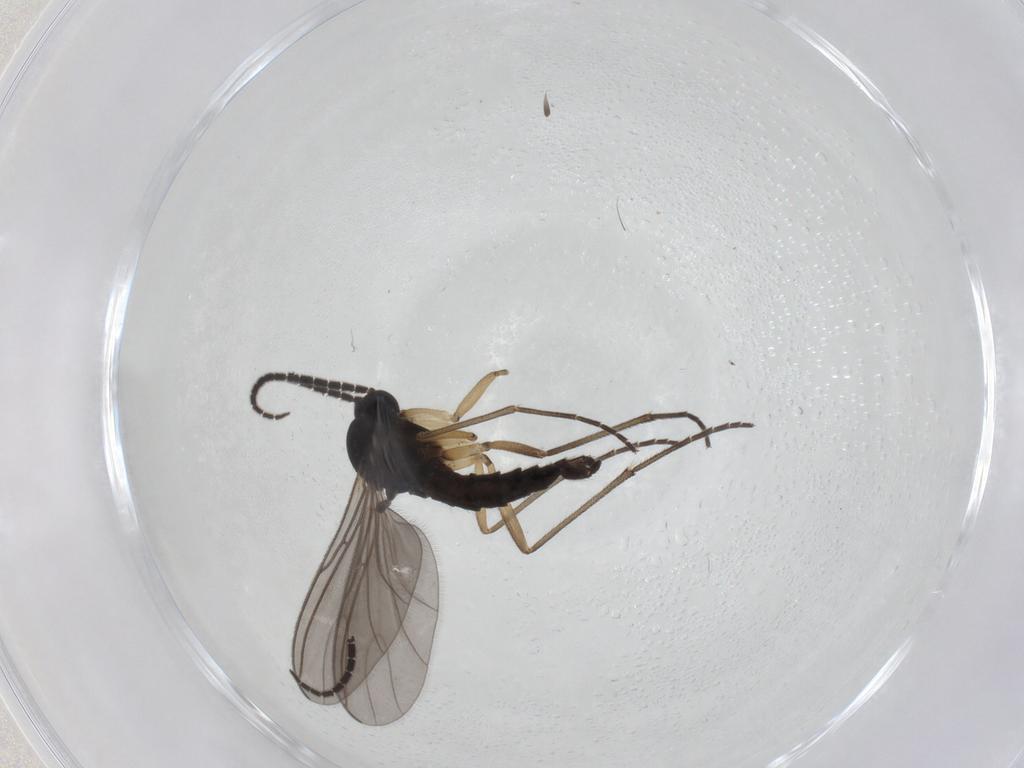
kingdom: Animalia
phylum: Arthropoda
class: Insecta
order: Diptera
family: Sciaridae
